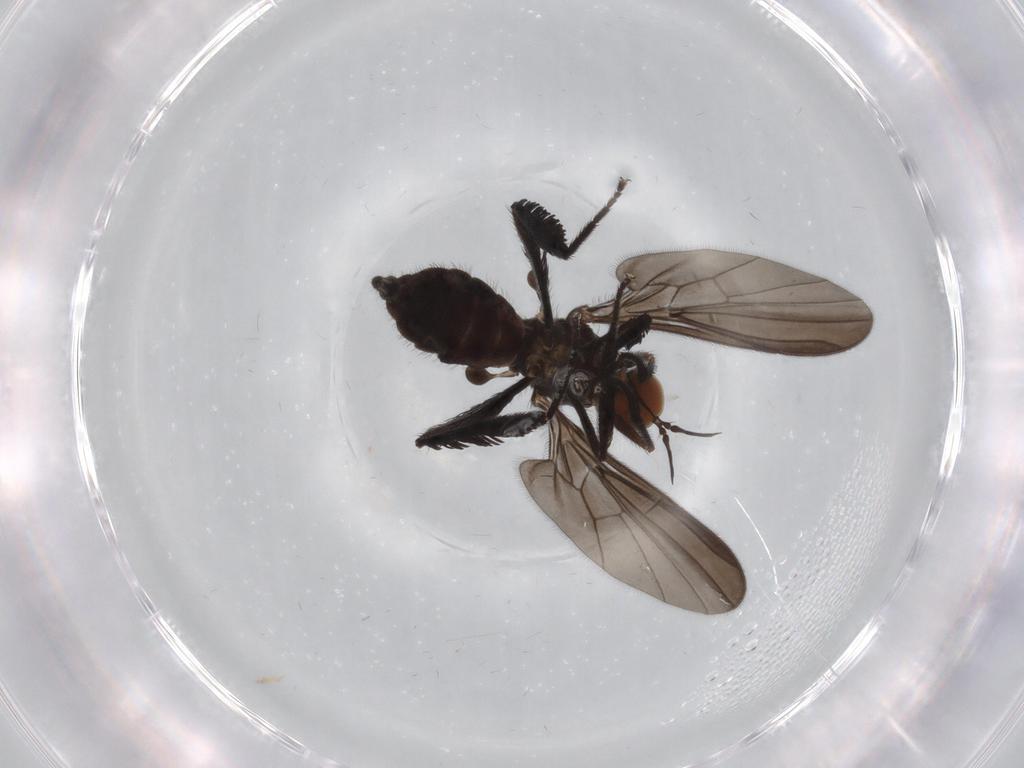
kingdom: Animalia
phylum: Arthropoda
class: Insecta
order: Diptera
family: Empididae
